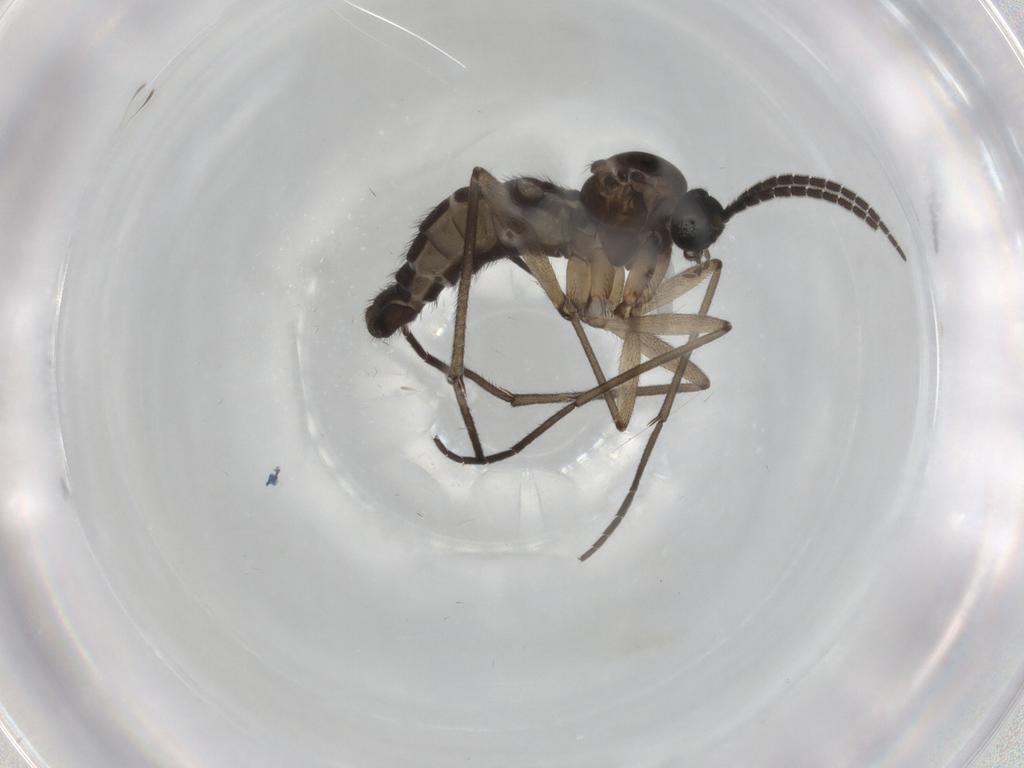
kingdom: Animalia
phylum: Arthropoda
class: Insecta
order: Diptera
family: Sciaridae
